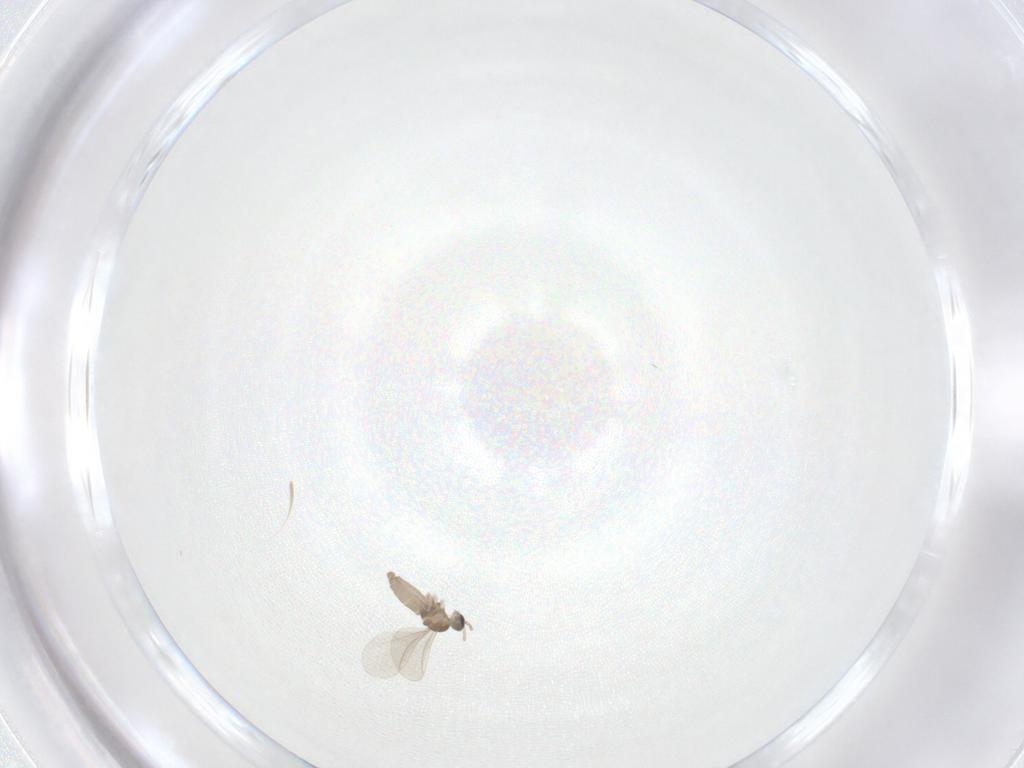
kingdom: Animalia
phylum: Arthropoda
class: Insecta
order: Diptera
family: Cecidomyiidae
